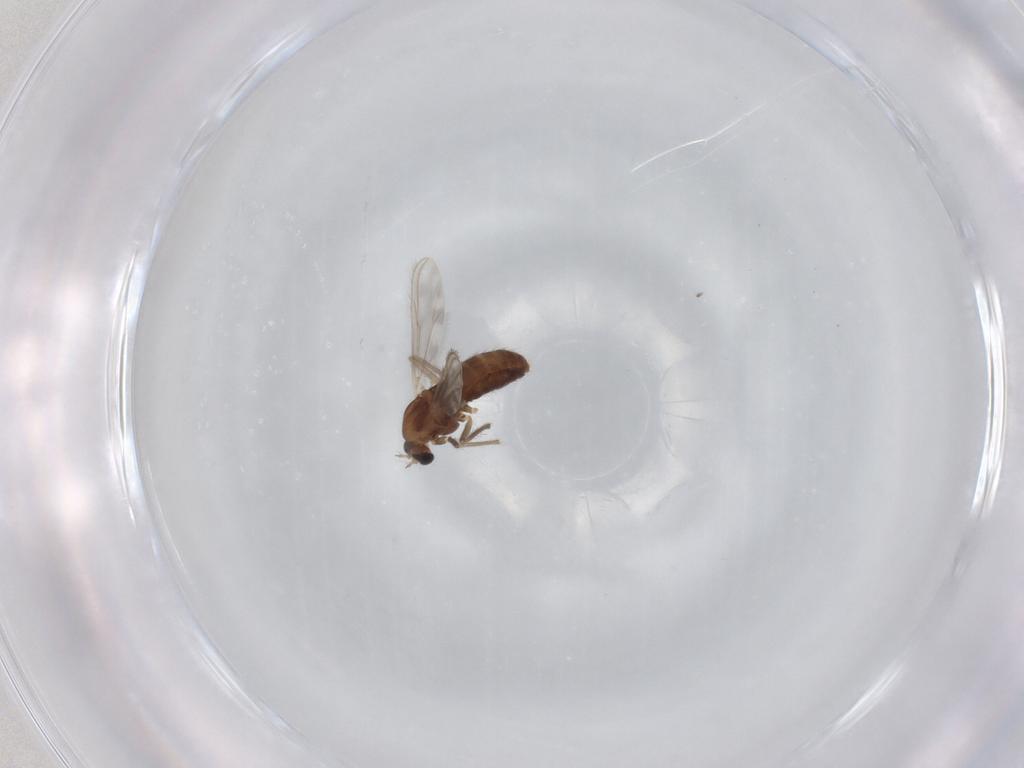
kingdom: Animalia
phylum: Arthropoda
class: Insecta
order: Diptera
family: Chironomidae
